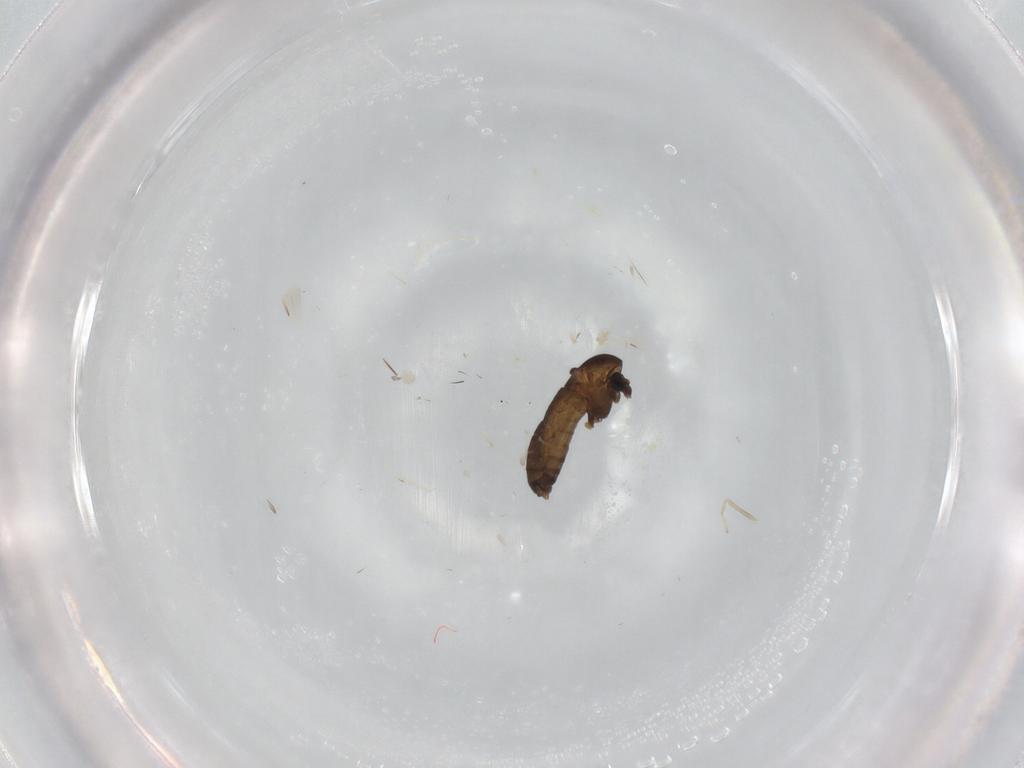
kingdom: Animalia
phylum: Arthropoda
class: Insecta
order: Diptera
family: Chironomidae
